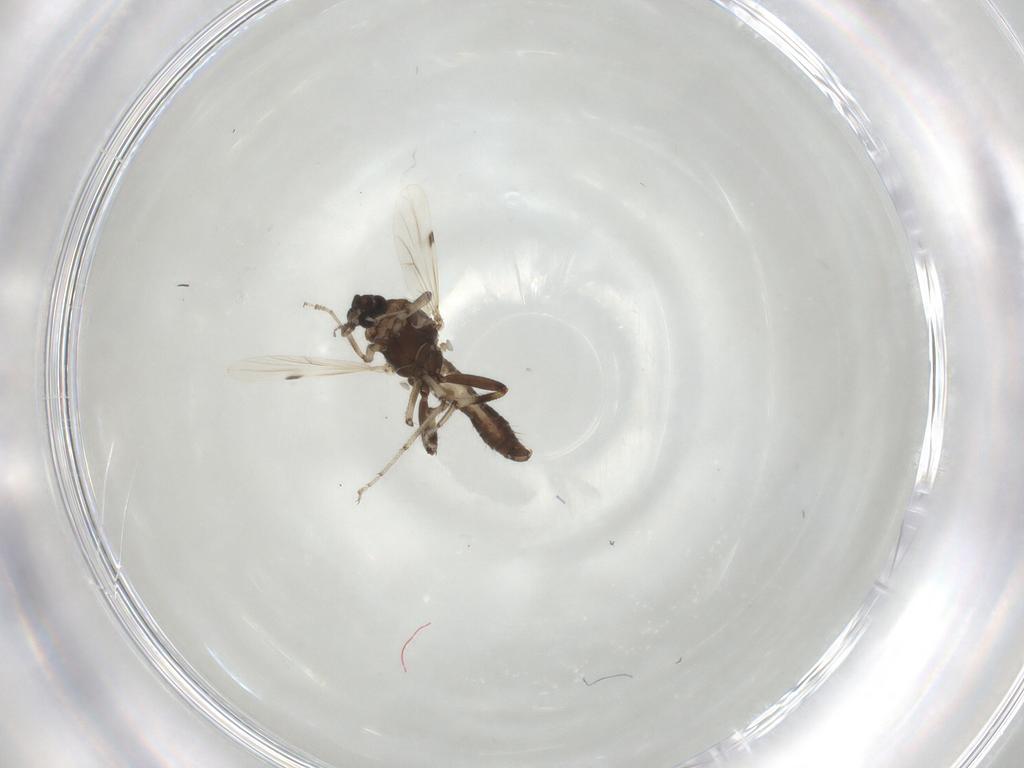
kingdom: Animalia
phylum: Arthropoda
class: Insecta
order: Diptera
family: Ceratopogonidae
